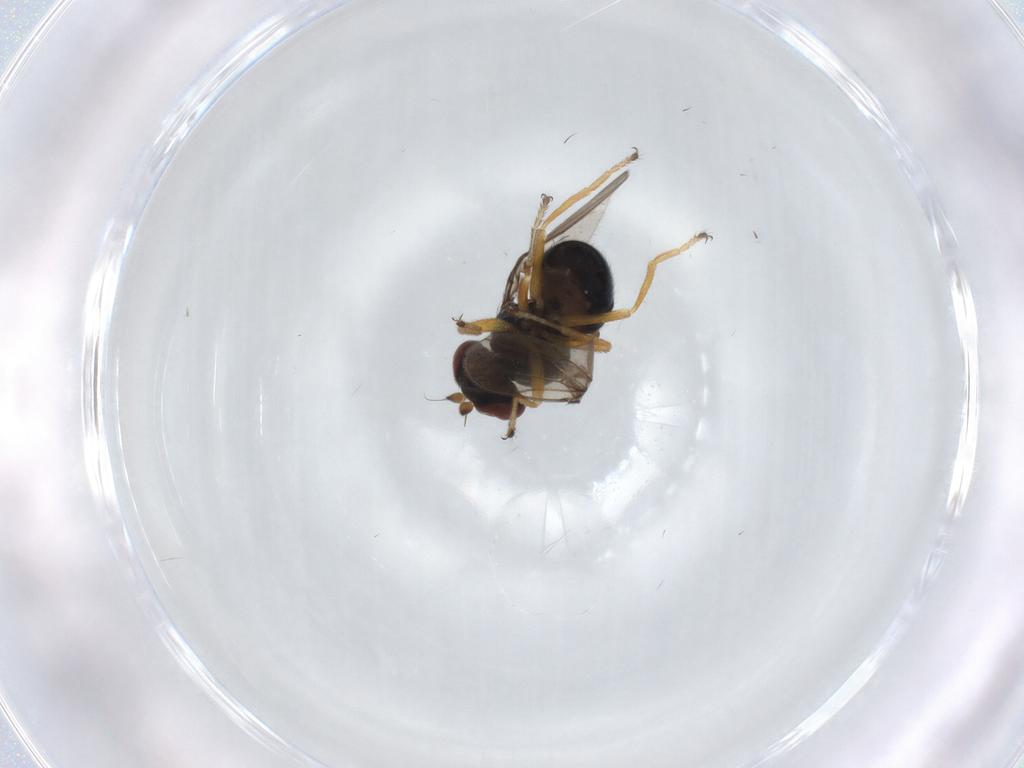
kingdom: Animalia
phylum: Arthropoda
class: Insecta
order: Diptera
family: Ephydridae
